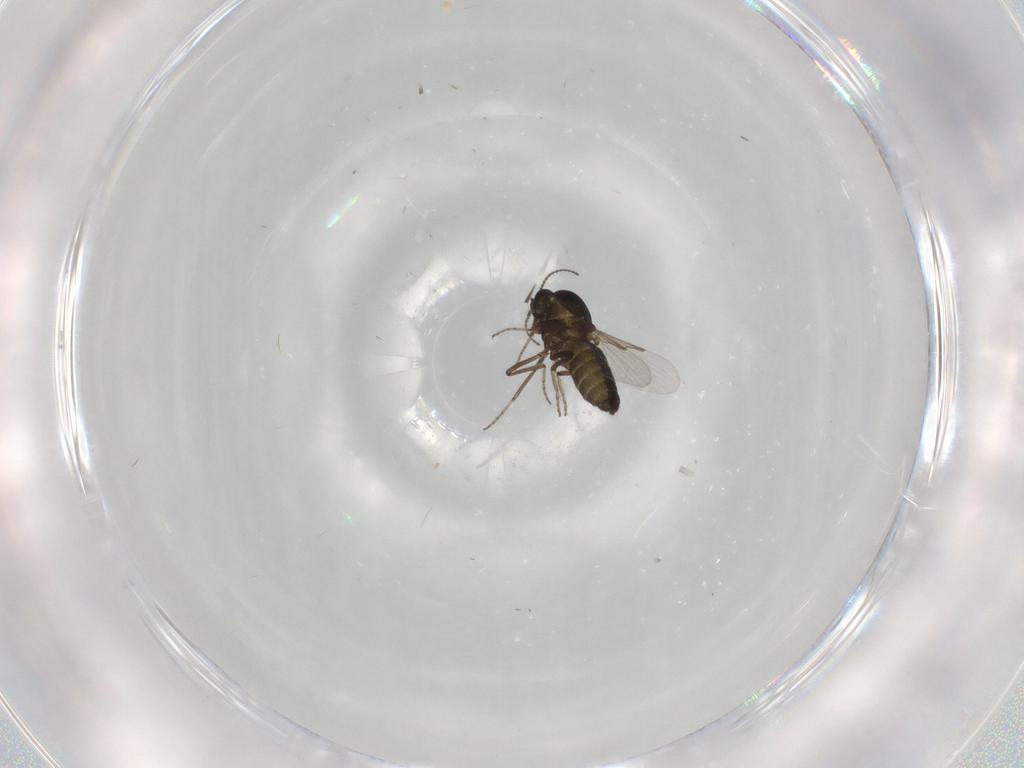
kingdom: Animalia
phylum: Arthropoda
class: Insecta
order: Diptera
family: Ceratopogonidae
